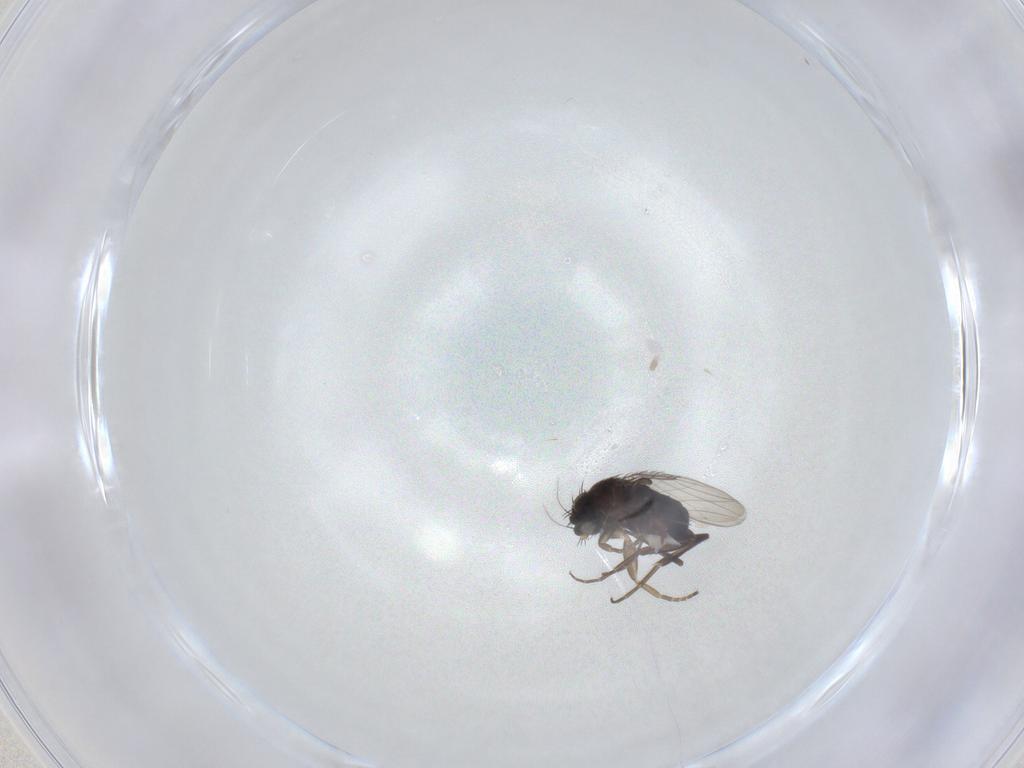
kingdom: Animalia
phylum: Arthropoda
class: Insecta
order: Diptera
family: Phoridae
